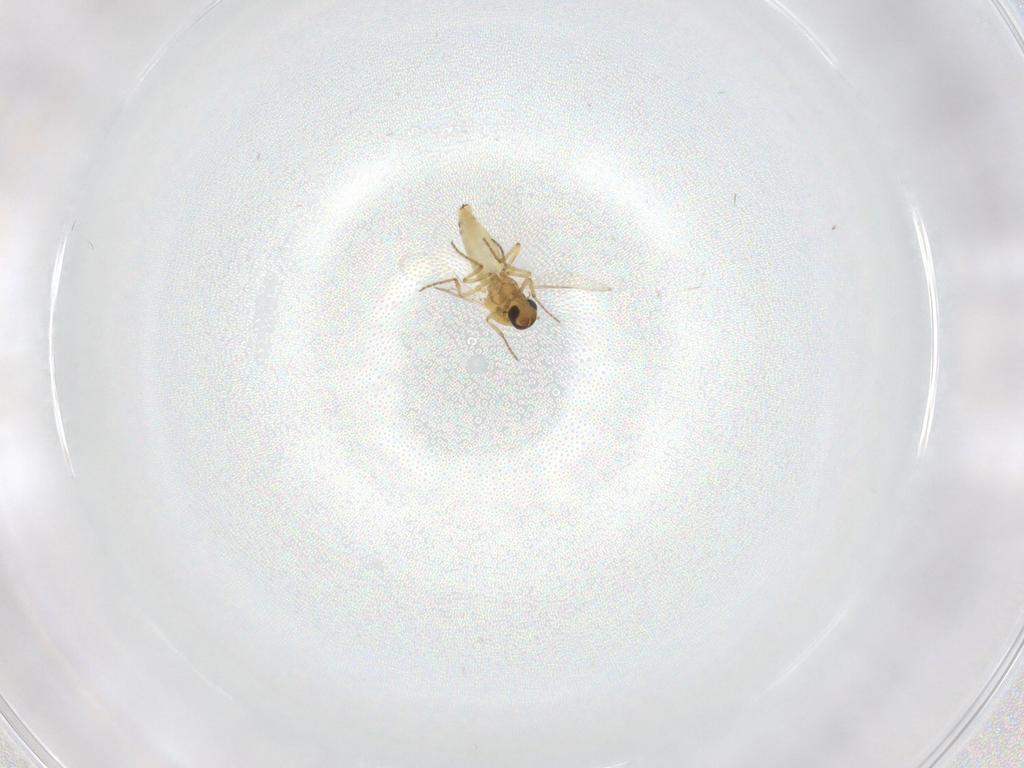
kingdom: Animalia
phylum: Arthropoda
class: Insecta
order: Diptera
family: Ceratopogonidae
